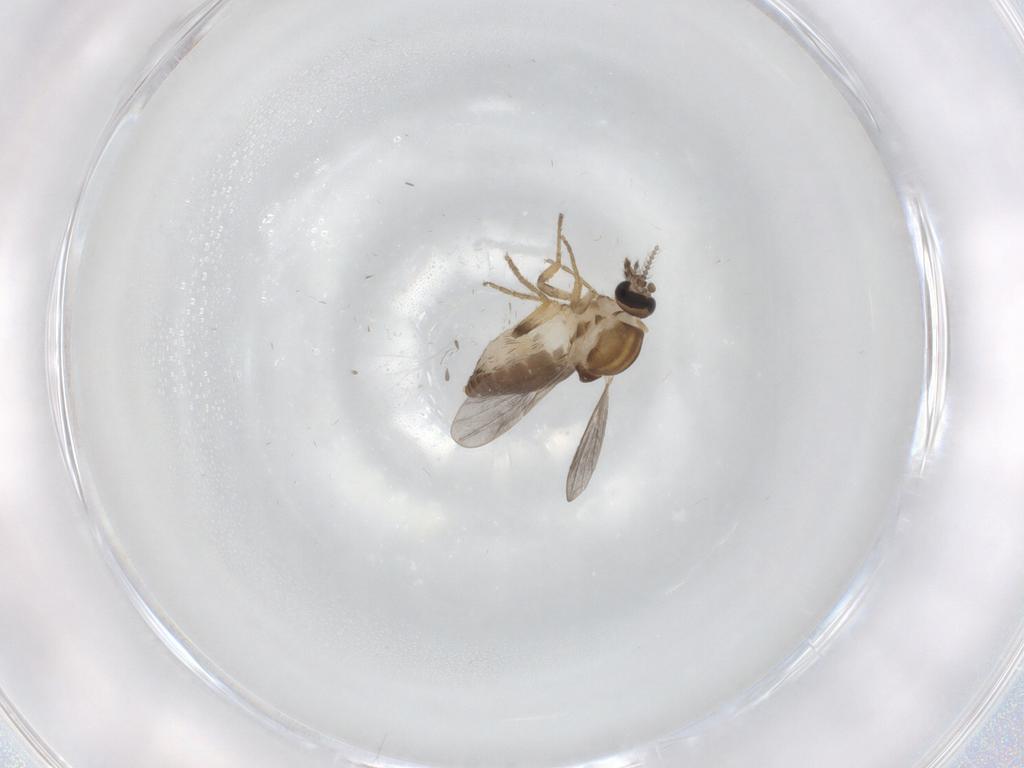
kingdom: Animalia
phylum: Arthropoda
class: Insecta
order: Diptera
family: Ceratopogonidae
